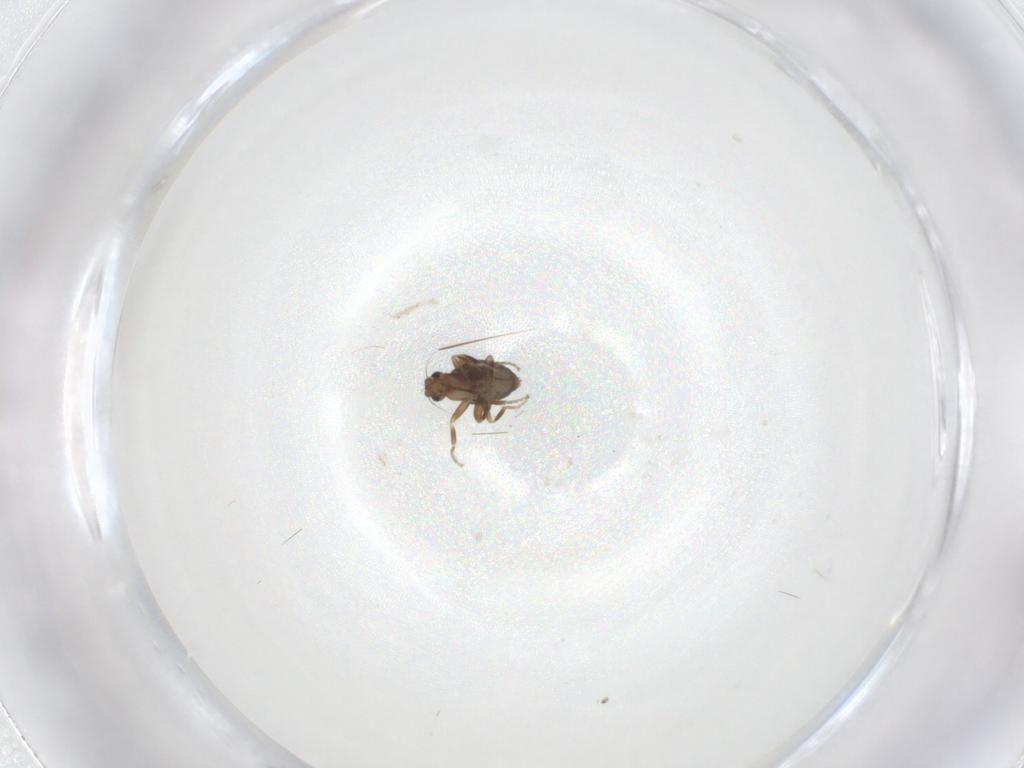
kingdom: Animalia
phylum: Arthropoda
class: Insecta
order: Diptera
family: Phoridae
